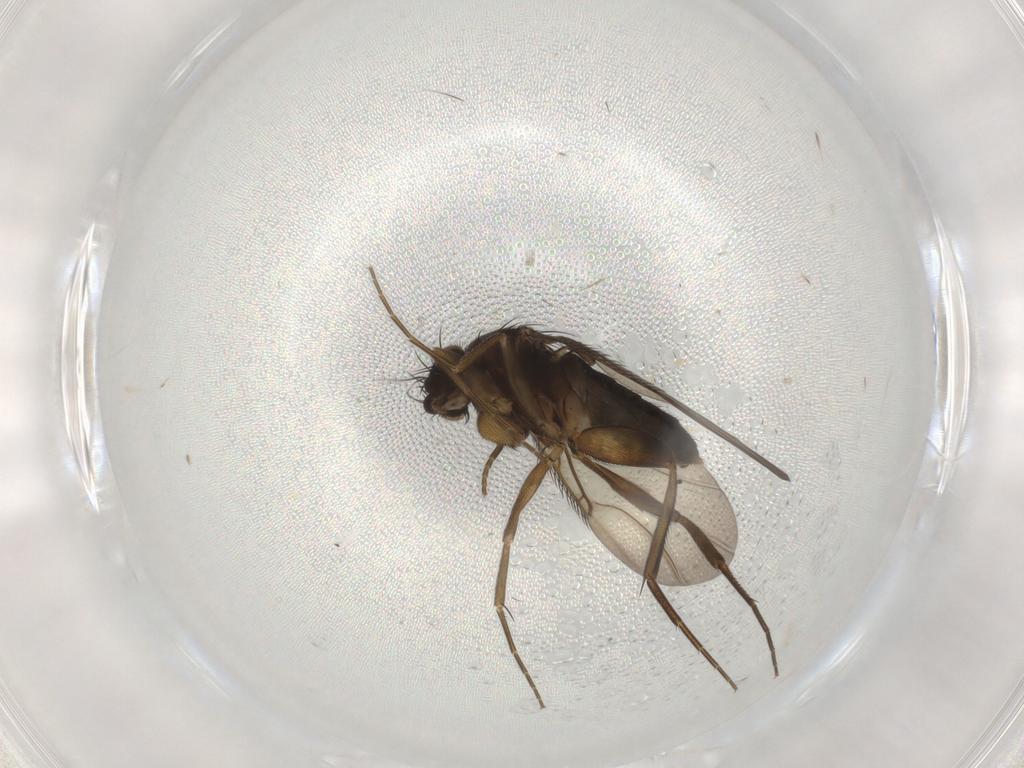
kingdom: Animalia
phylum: Arthropoda
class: Insecta
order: Diptera
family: Phoridae
